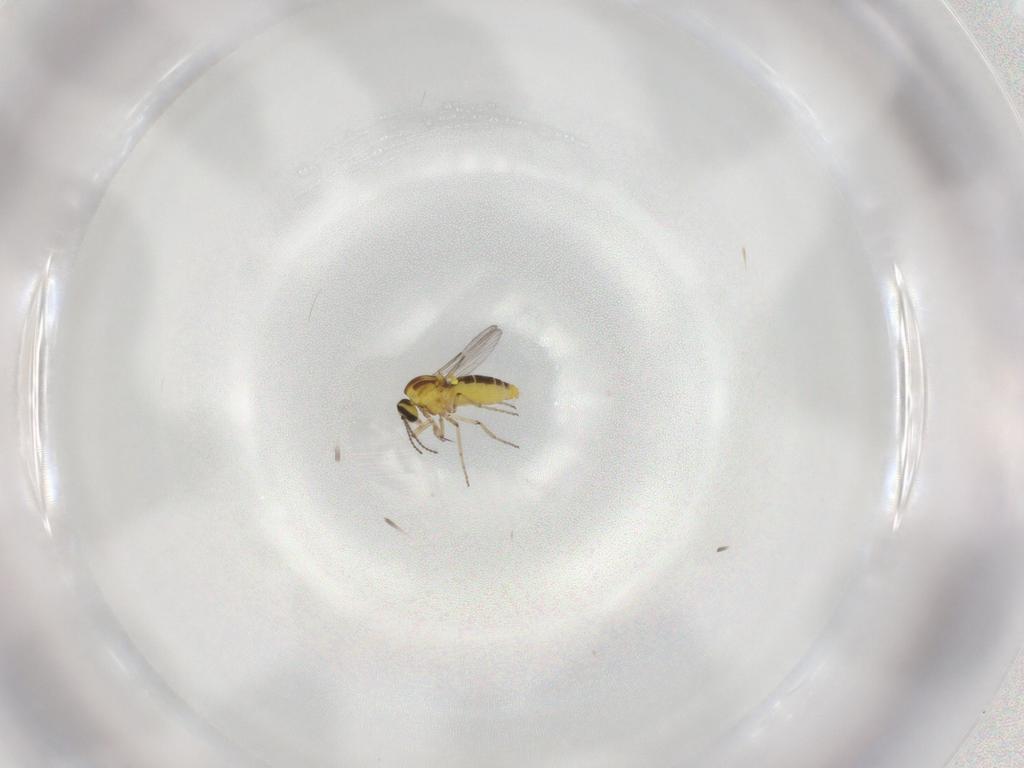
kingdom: Animalia
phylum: Arthropoda
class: Insecta
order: Diptera
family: Ceratopogonidae
